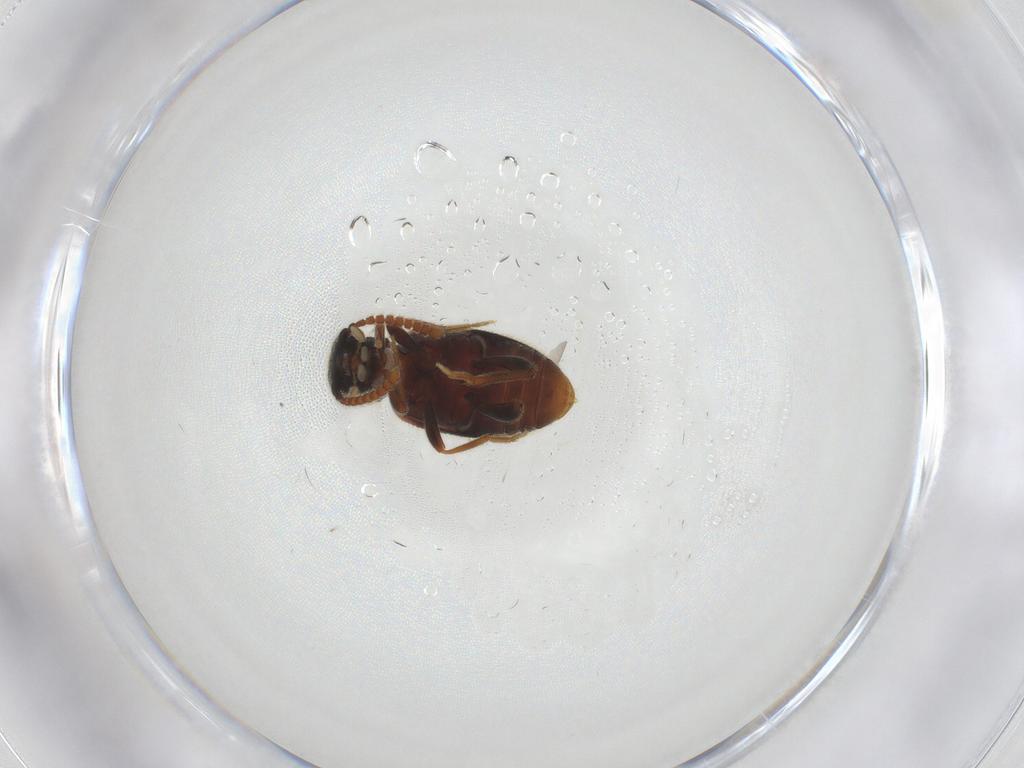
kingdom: Animalia
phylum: Arthropoda
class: Insecta
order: Coleoptera
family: Aderidae
